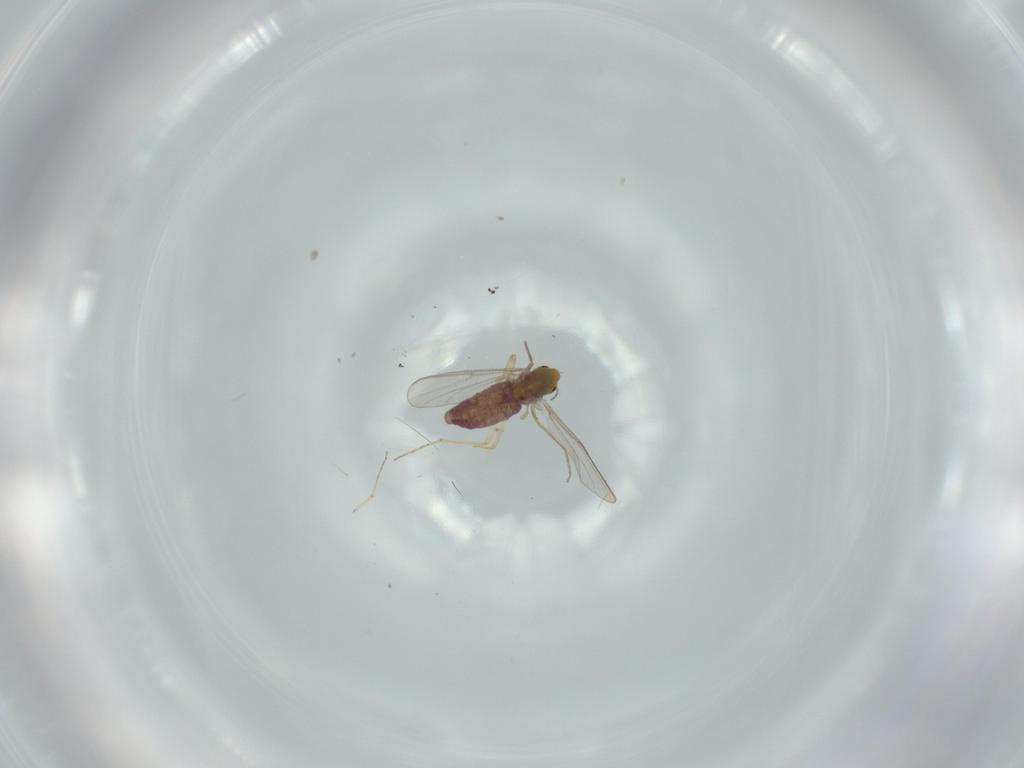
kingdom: Animalia
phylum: Arthropoda
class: Insecta
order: Diptera
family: Chironomidae
